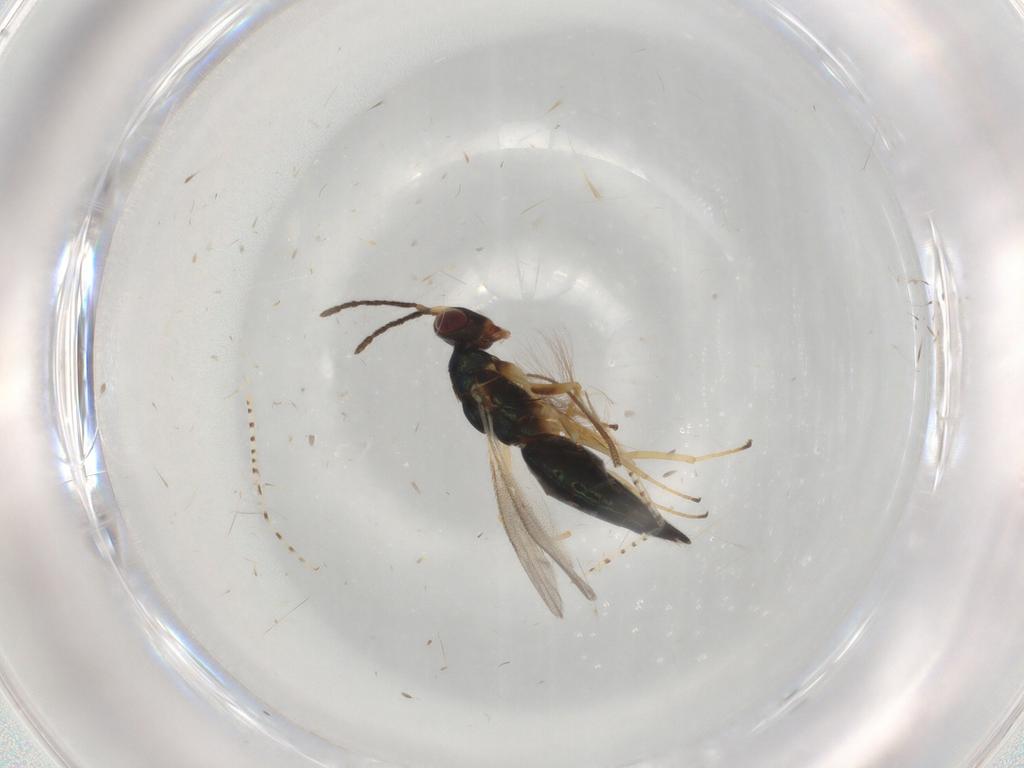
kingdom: Animalia
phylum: Arthropoda
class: Insecta
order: Hymenoptera
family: Eulophidae
